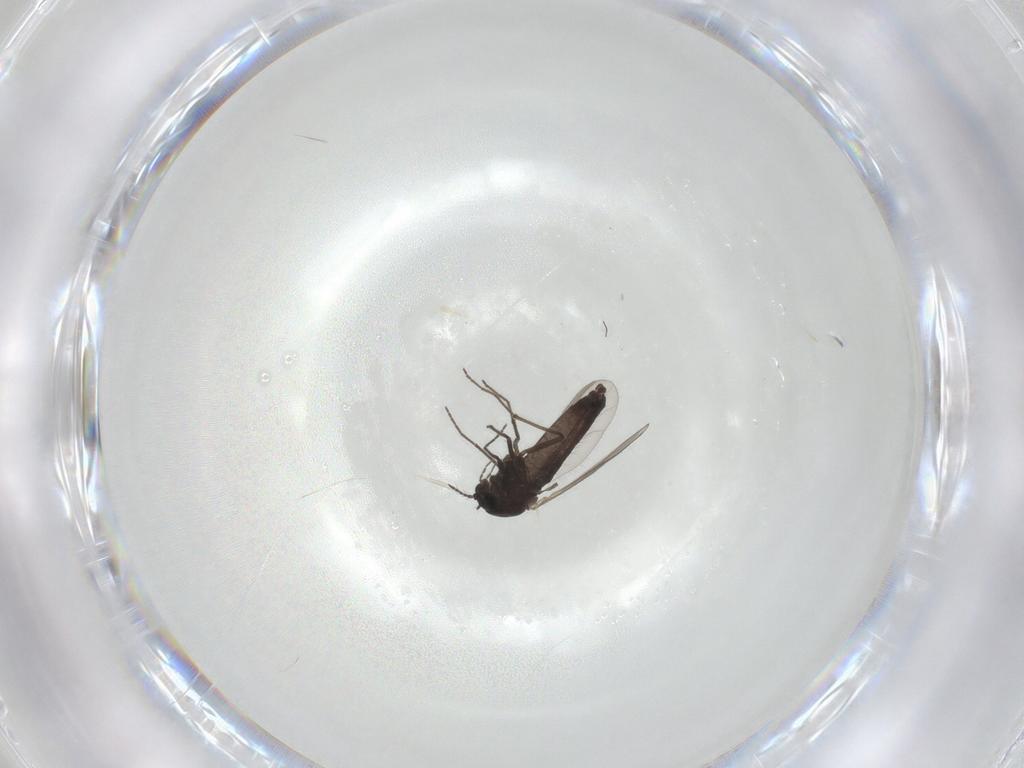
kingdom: Animalia
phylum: Arthropoda
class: Insecta
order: Diptera
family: Chironomidae
